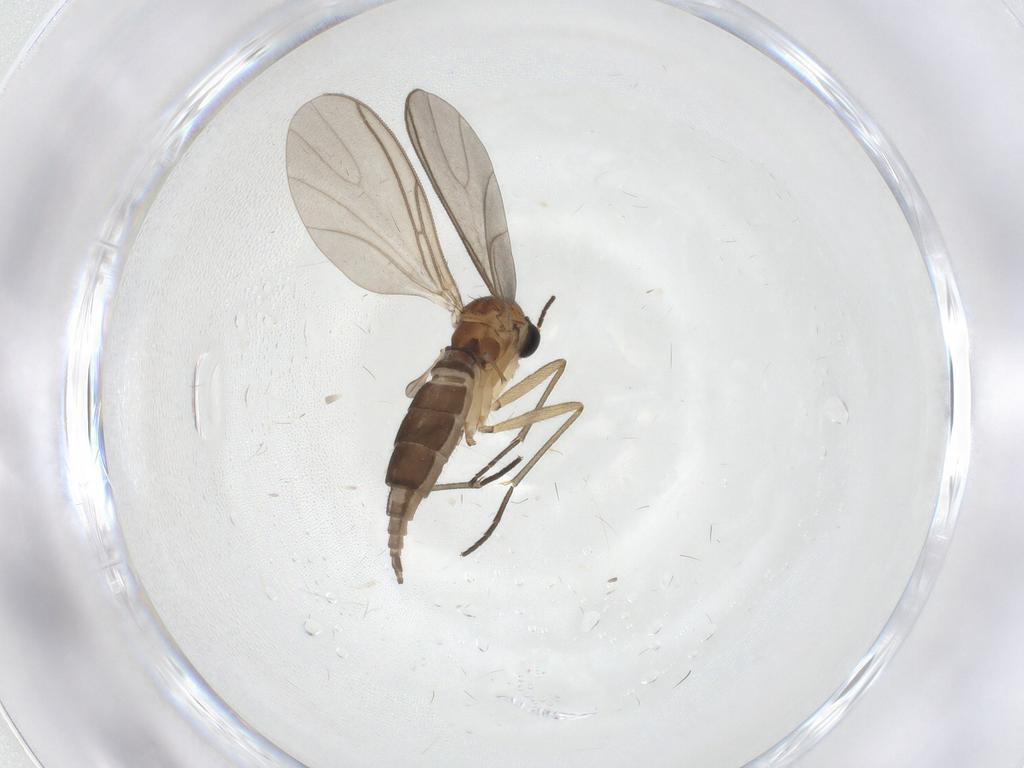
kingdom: Animalia
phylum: Arthropoda
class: Insecta
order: Diptera
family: Sciaridae
